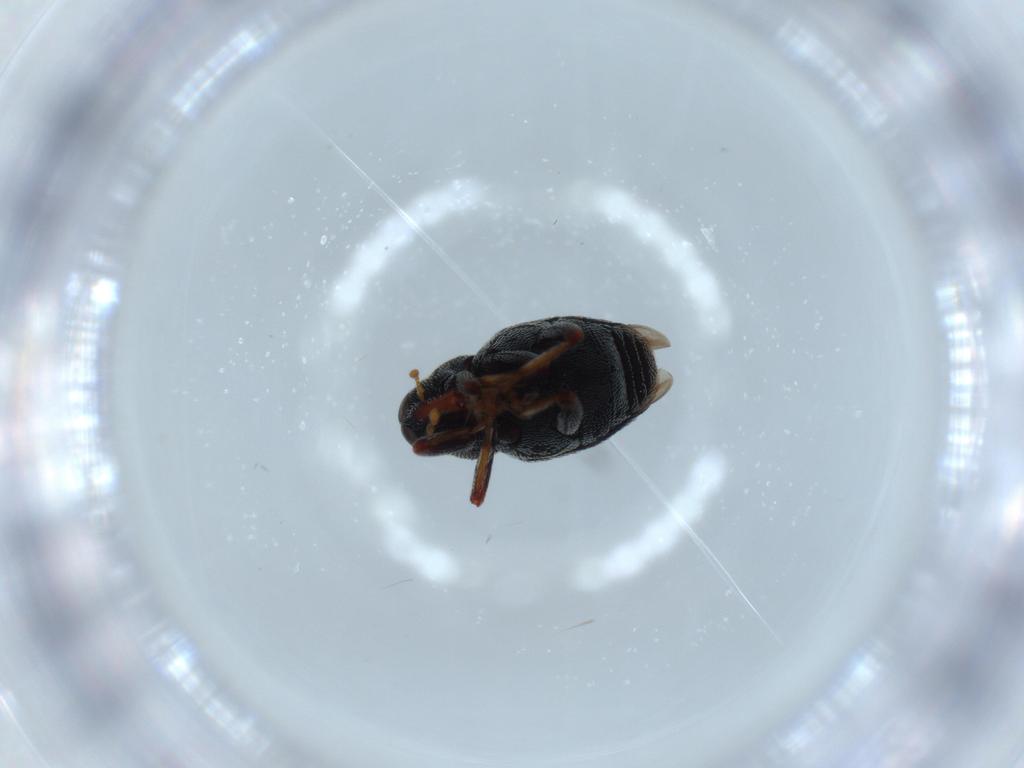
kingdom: Animalia
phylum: Arthropoda
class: Insecta
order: Coleoptera
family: Curculionidae
